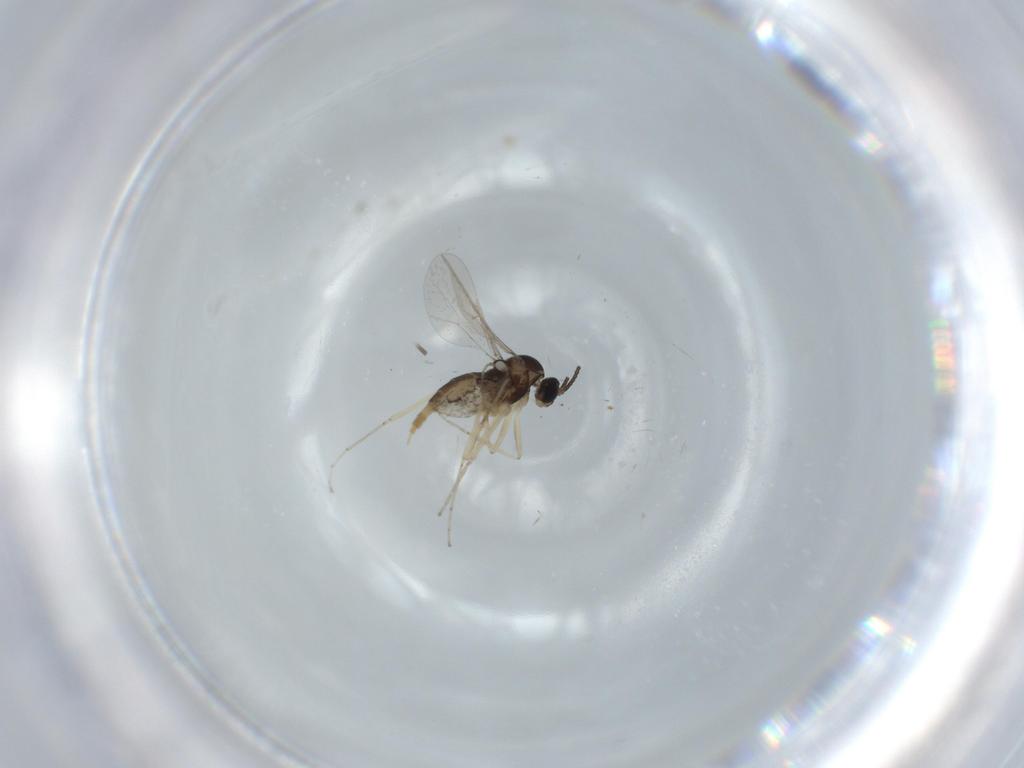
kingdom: Animalia
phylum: Arthropoda
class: Insecta
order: Diptera
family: Cecidomyiidae
